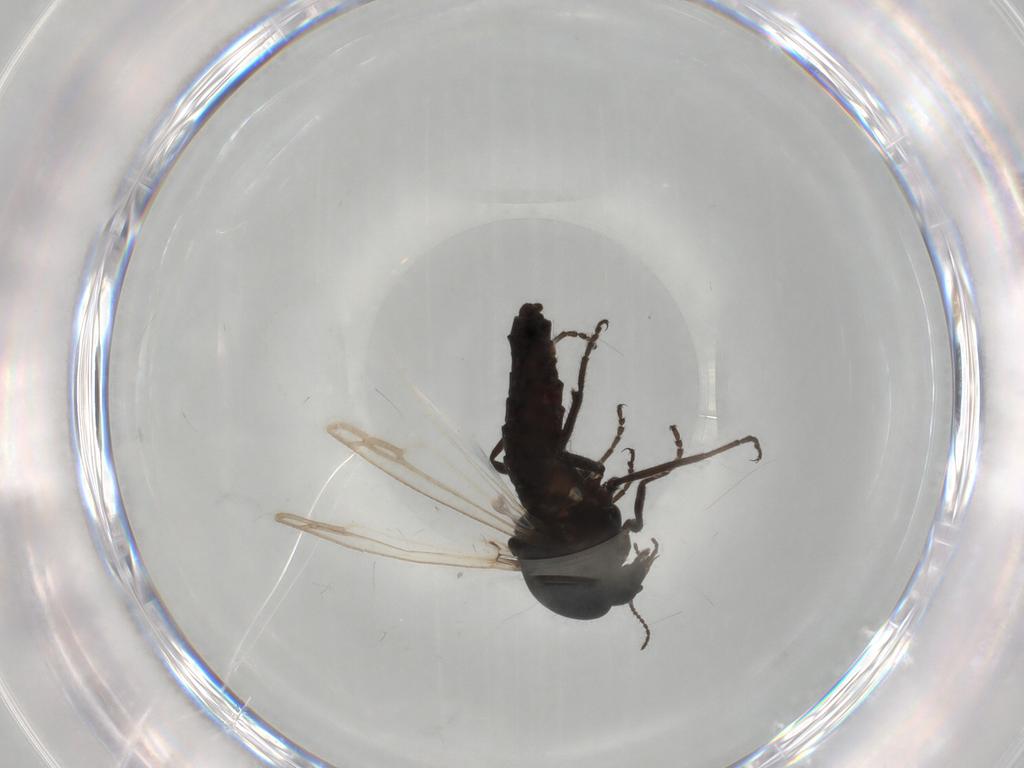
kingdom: Animalia
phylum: Arthropoda
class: Insecta
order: Diptera
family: Ceratopogonidae
